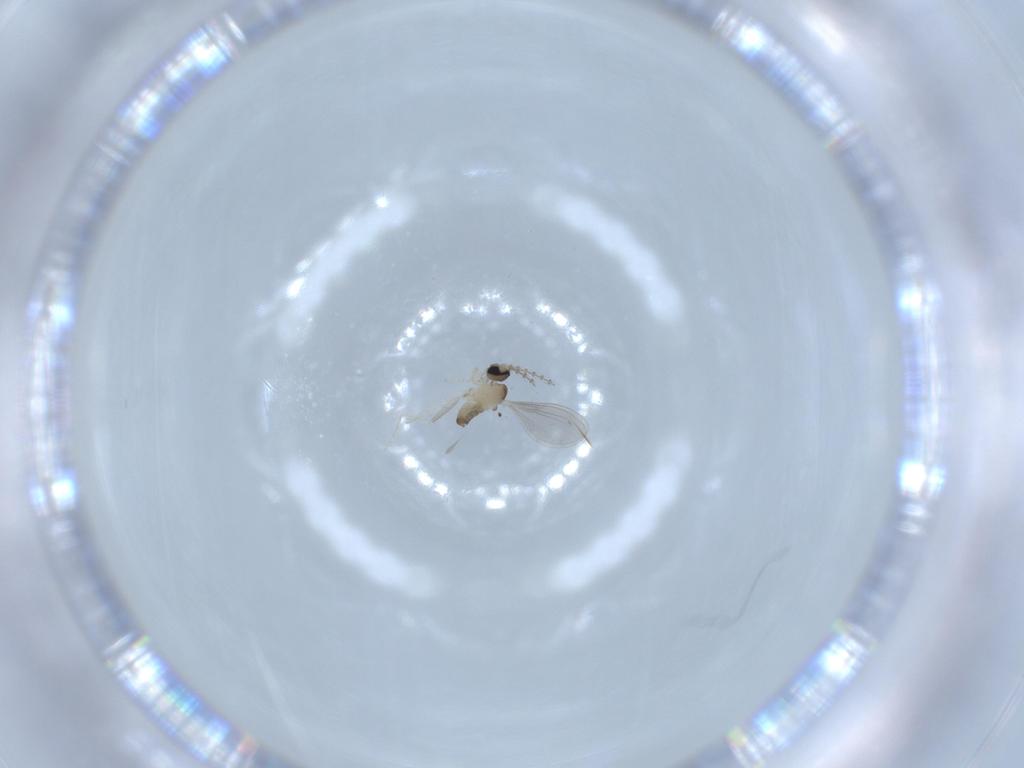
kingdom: Animalia
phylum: Arthropoda
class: Insecta
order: Diptera
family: Cecidomyiidae
